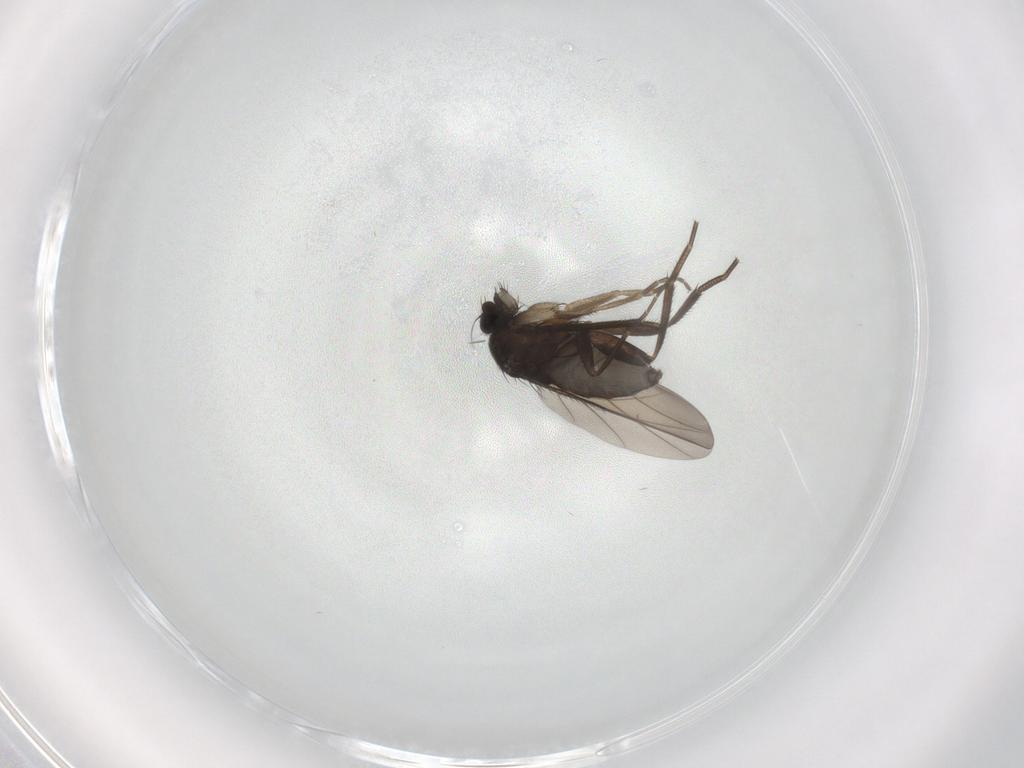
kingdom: Animalia
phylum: Arthropoda
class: Insecta
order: Diptera
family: Phoridae
